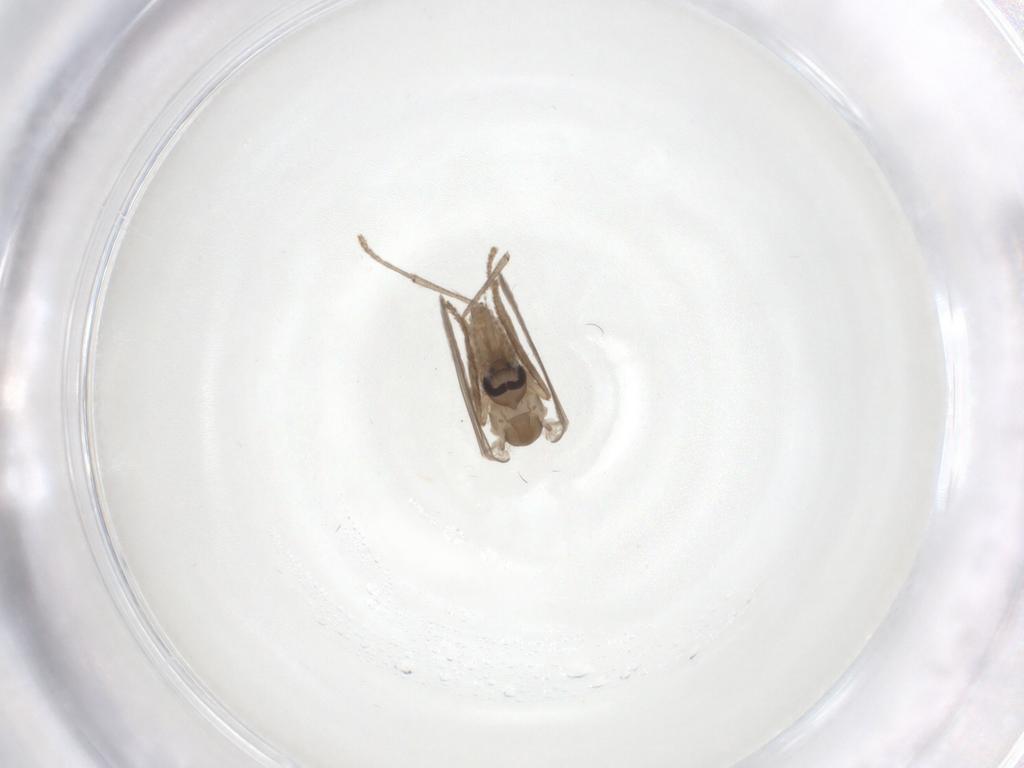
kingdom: Animalia
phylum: Arthropoda
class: Insecta
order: Diptera
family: Psychodidae
